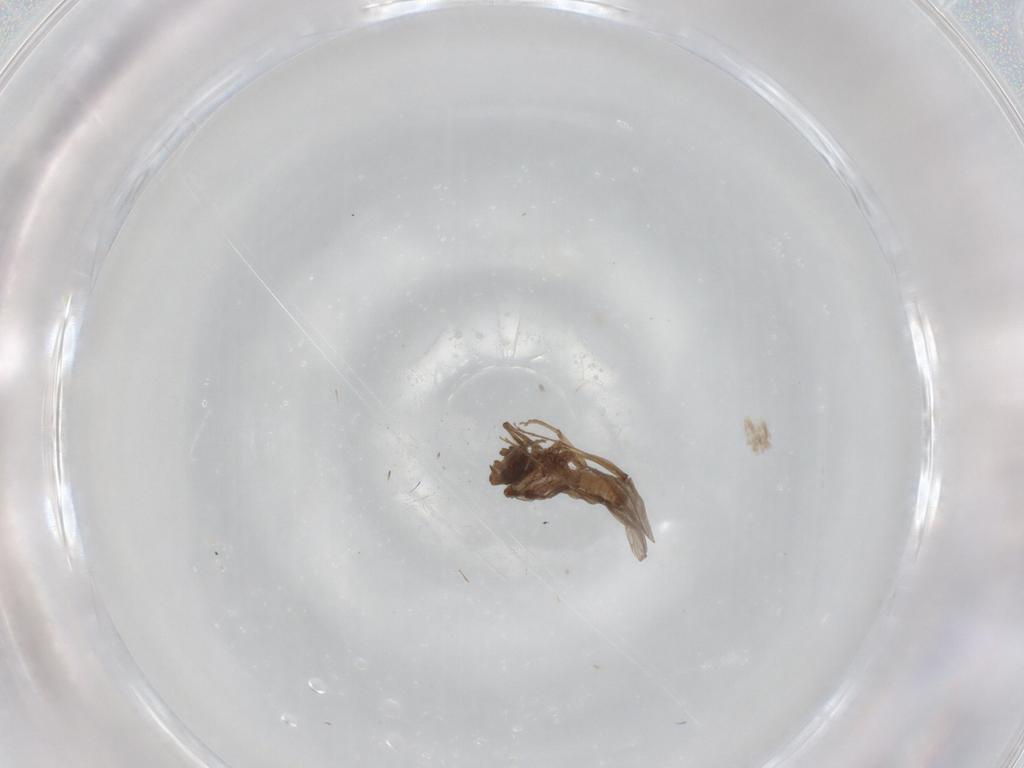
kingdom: Animalia
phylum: Arthropoda
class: Insecta
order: Neuroptera
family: Coniopterygidae
